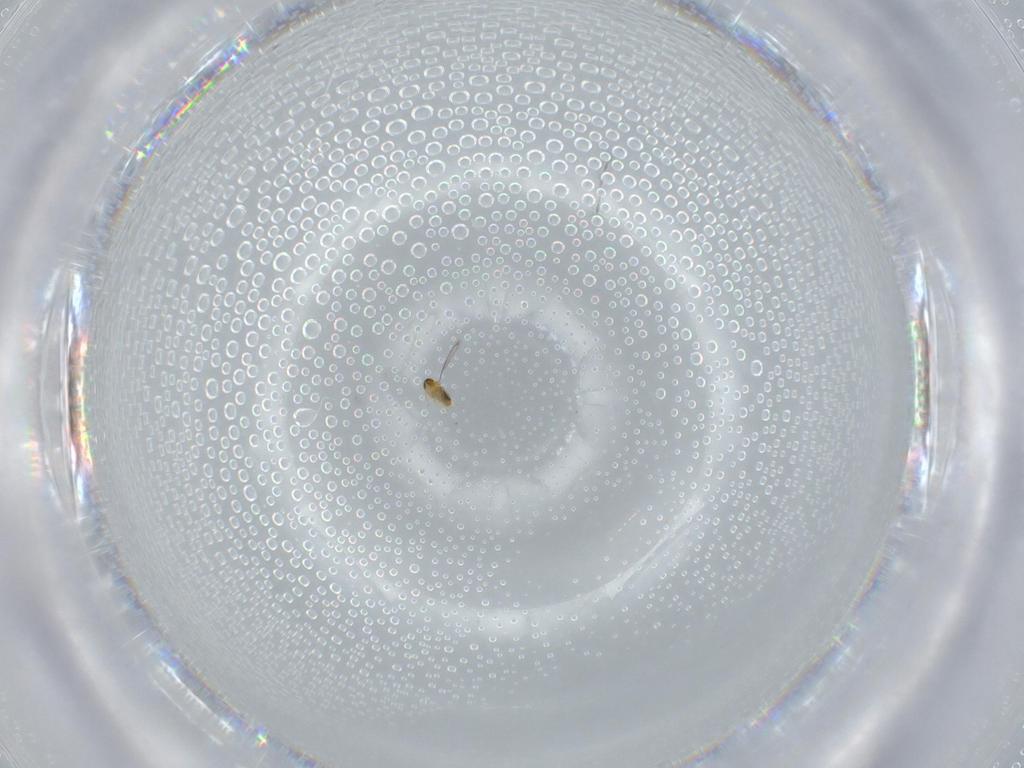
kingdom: Animalia
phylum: Arthropoda
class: Insecta
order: Hymenoptera
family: Aphelinidae
